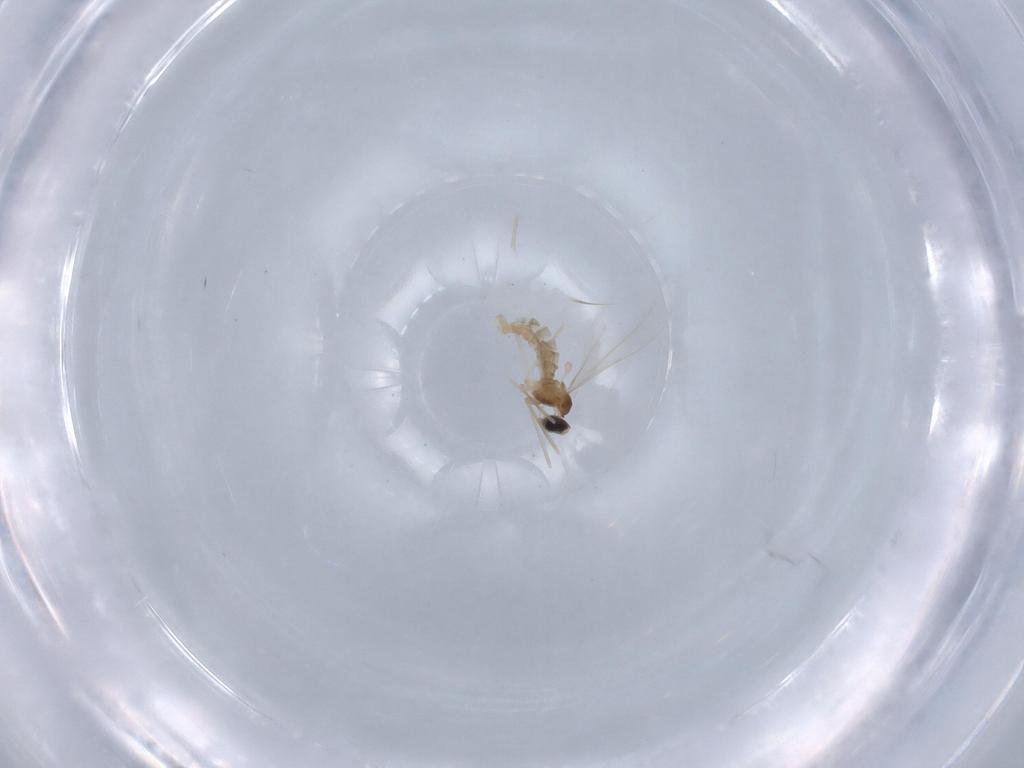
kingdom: Animalia
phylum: Arthropoda
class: Insecta
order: Diptera
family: Cecidomyiidae
